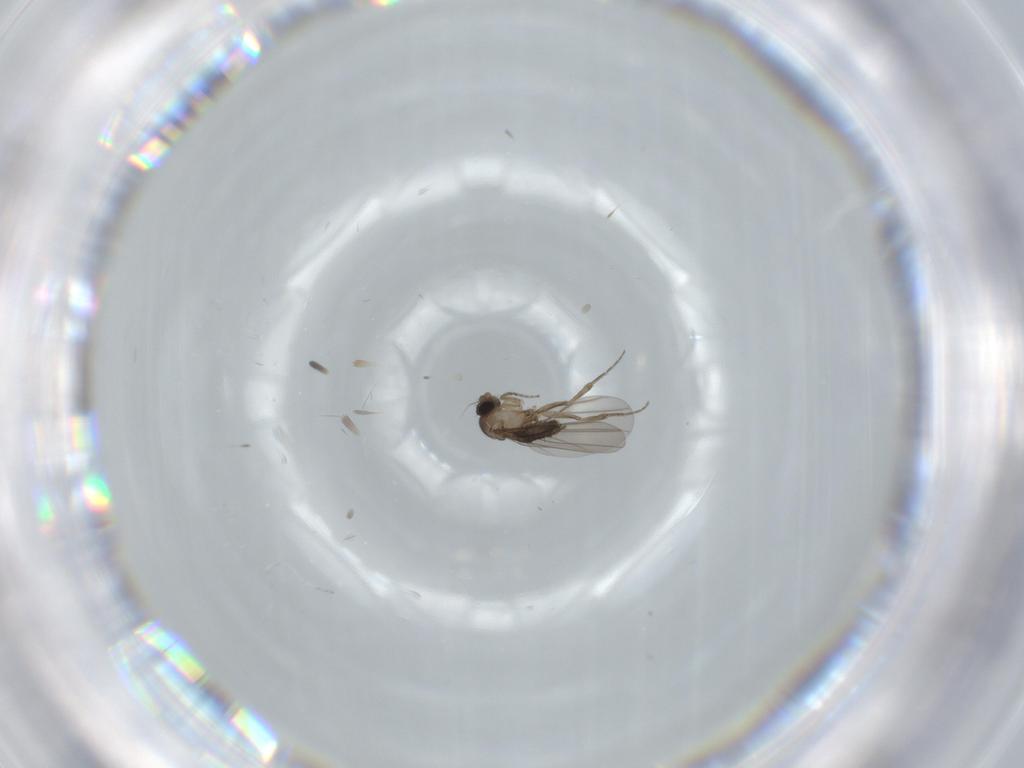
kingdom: Animalia
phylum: Arthropoda
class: Insecta
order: Diptera
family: Phoridae
